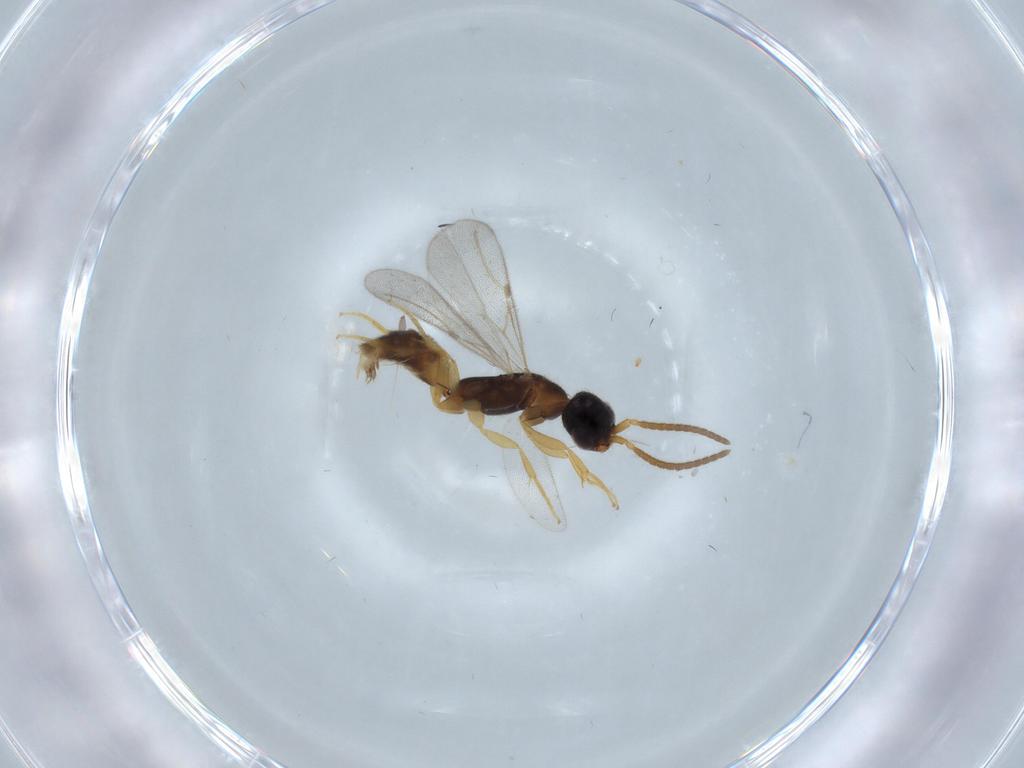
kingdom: Animalia
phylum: Arthropoda
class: Insecta
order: Hymenoptera
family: Bethylidae
